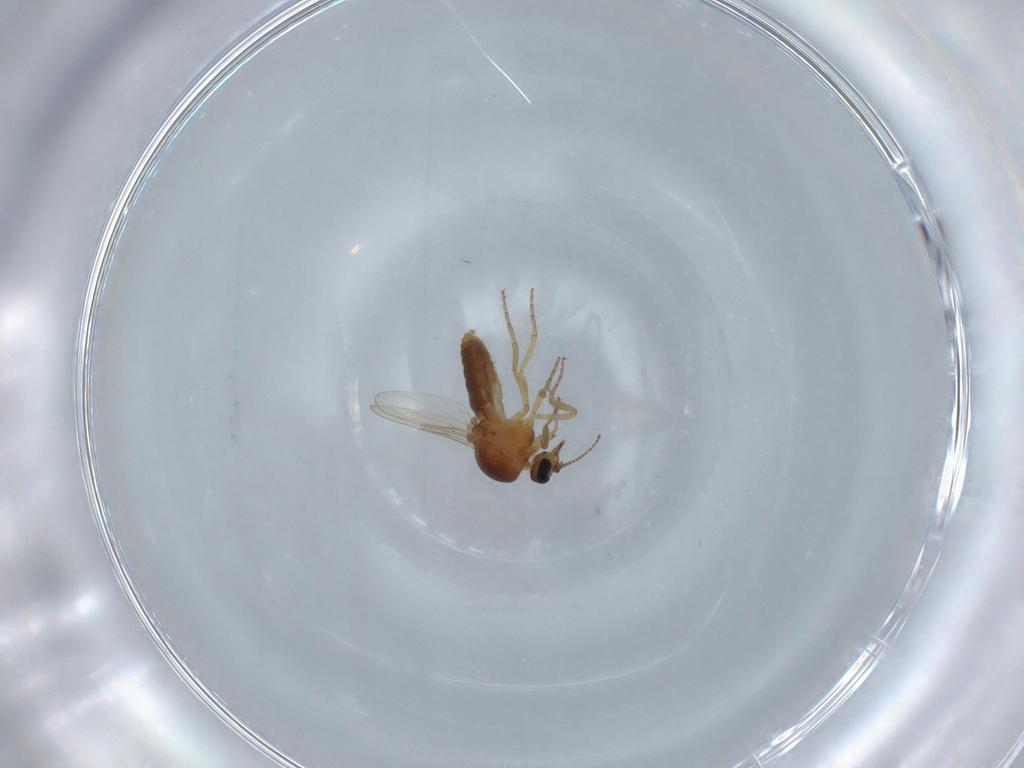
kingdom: Animalia
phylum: Arthropoda
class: Insecta
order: Diptera
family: Ceratopogonidae
